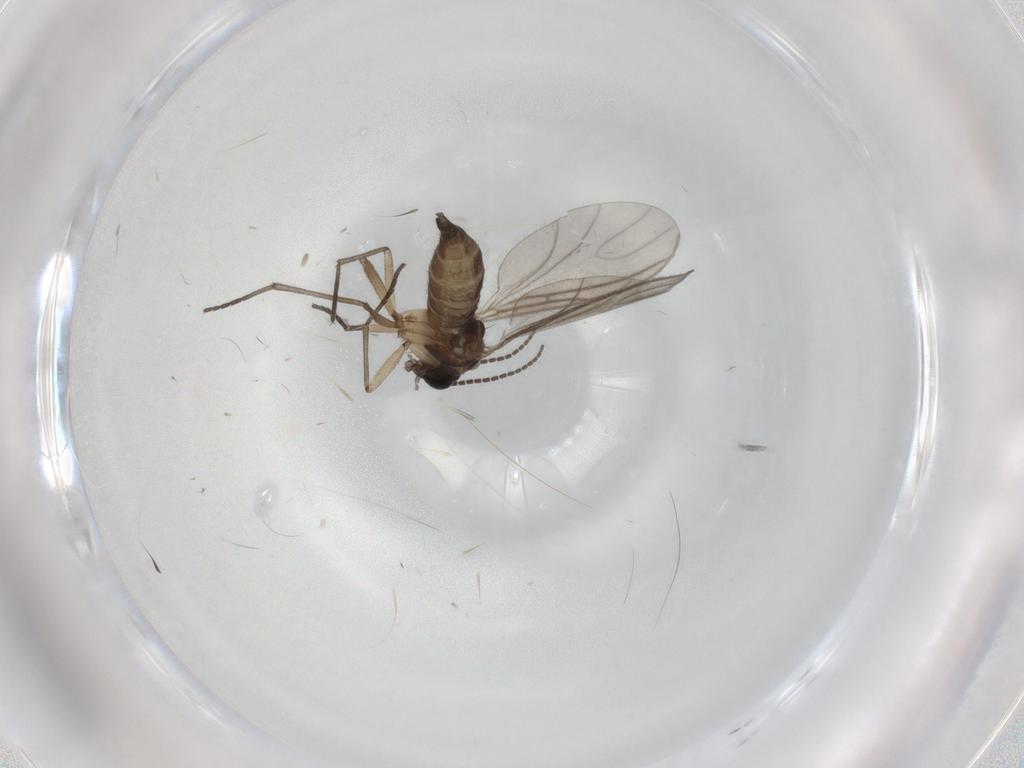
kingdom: Animalia
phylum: Arthropoda
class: Insecta
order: Diptera
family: Sciaridae
